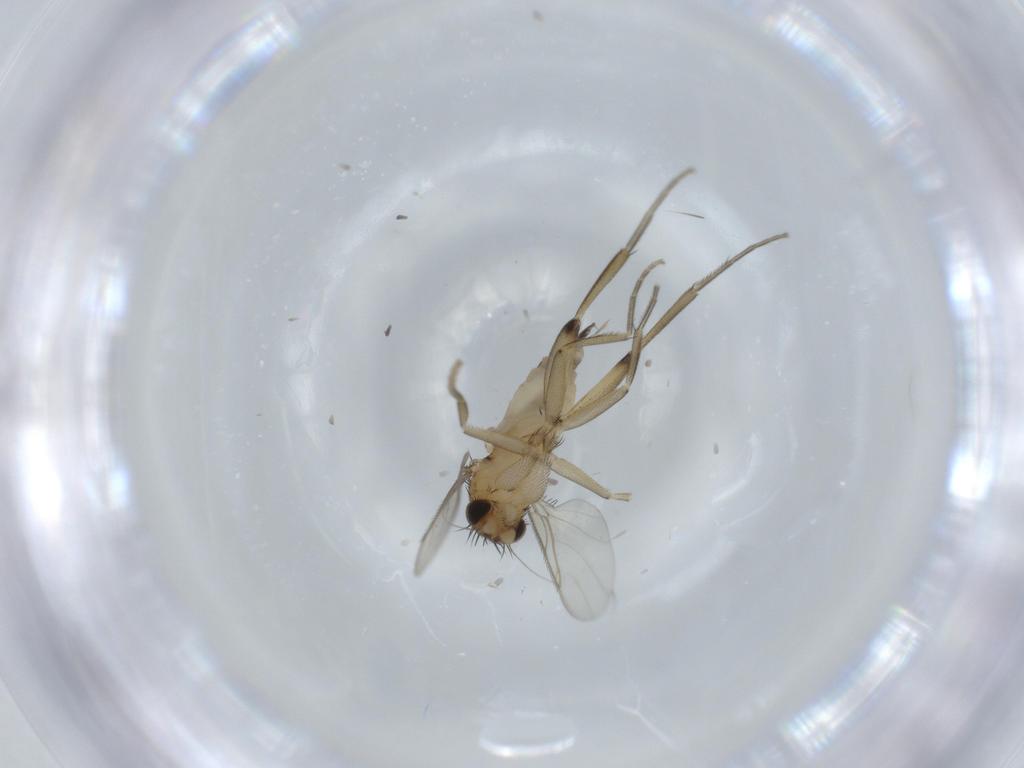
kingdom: Animalia
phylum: Arthropoda
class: Insecta
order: Diptera
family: Phoridae
